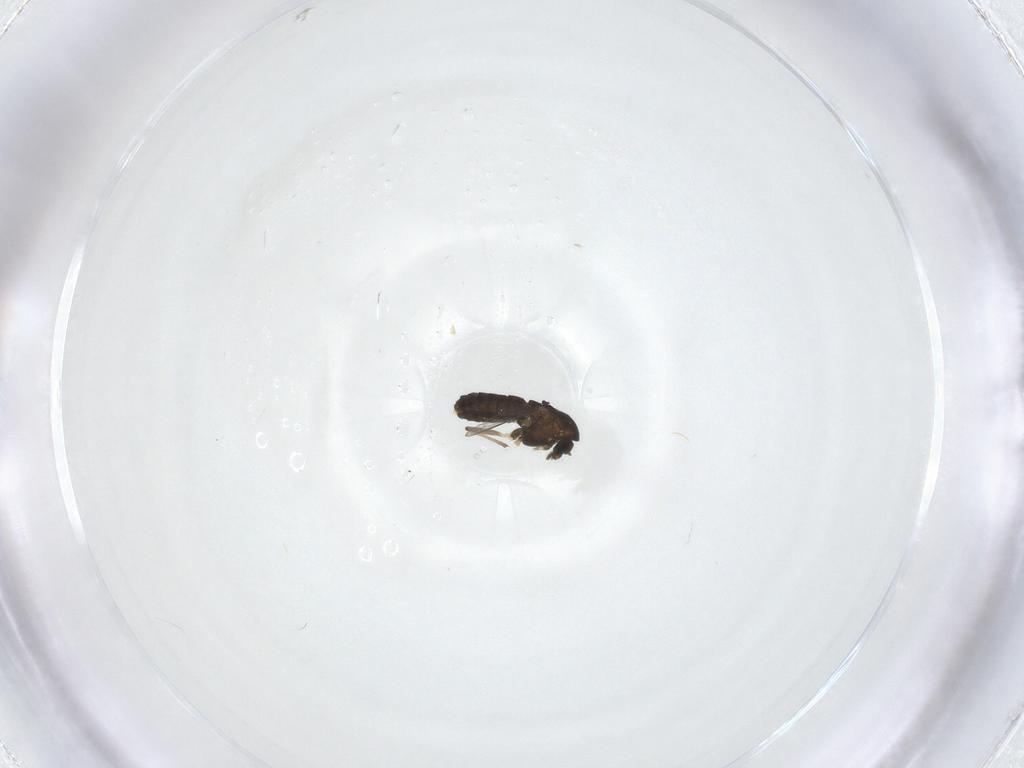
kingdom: Animalia
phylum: Arthropoda
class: Insecta
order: Diptera
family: Chironomidae
